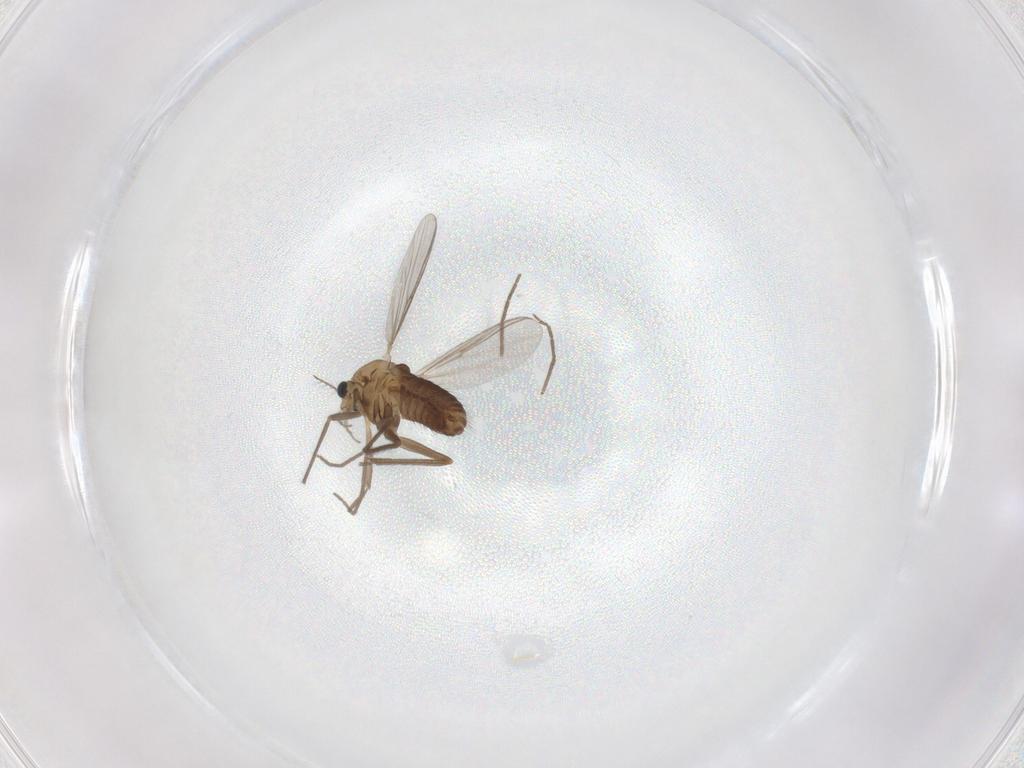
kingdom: Animalia
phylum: Arthropoda
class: Insecta
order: Diptera
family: Chironomidae
